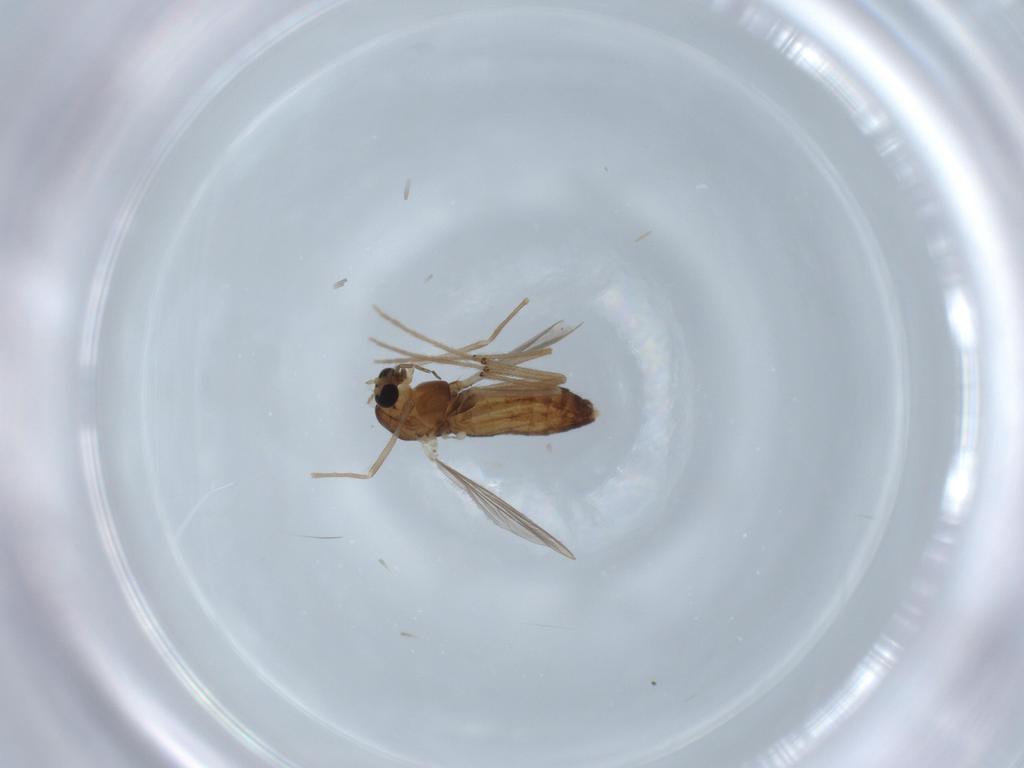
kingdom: Animalia
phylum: Arthropoda
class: Insecta
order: Diptera
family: Chironomidae
